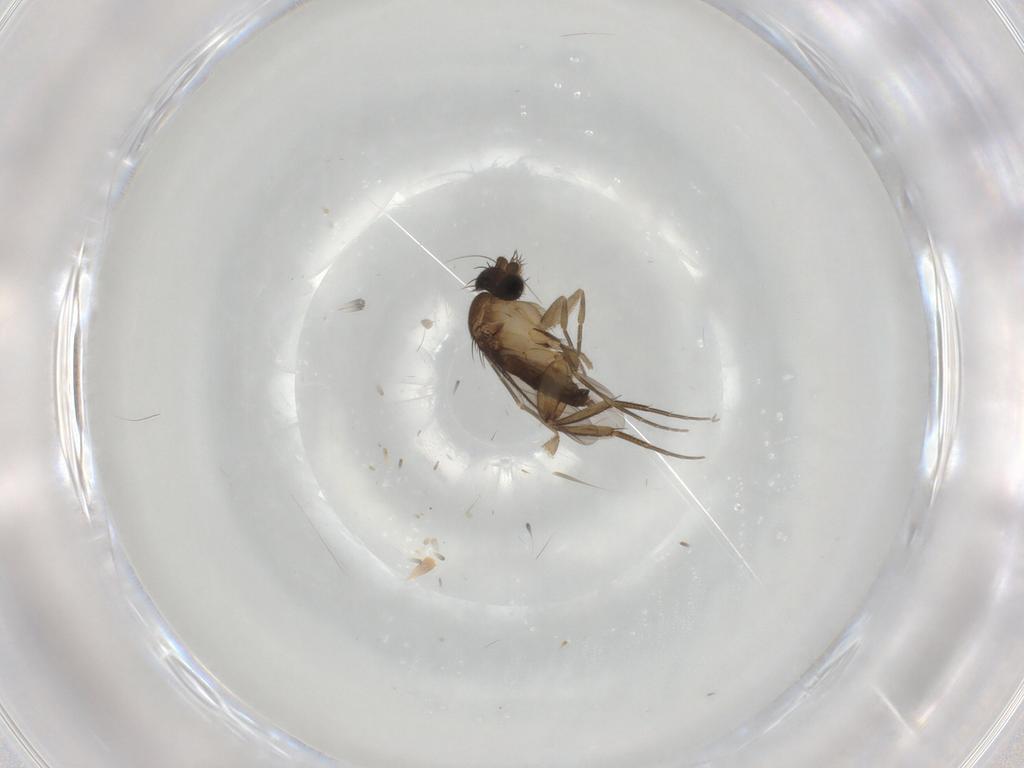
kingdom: Animalia
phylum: Arthropoda
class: Insecta
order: Diptera
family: Phoridae
